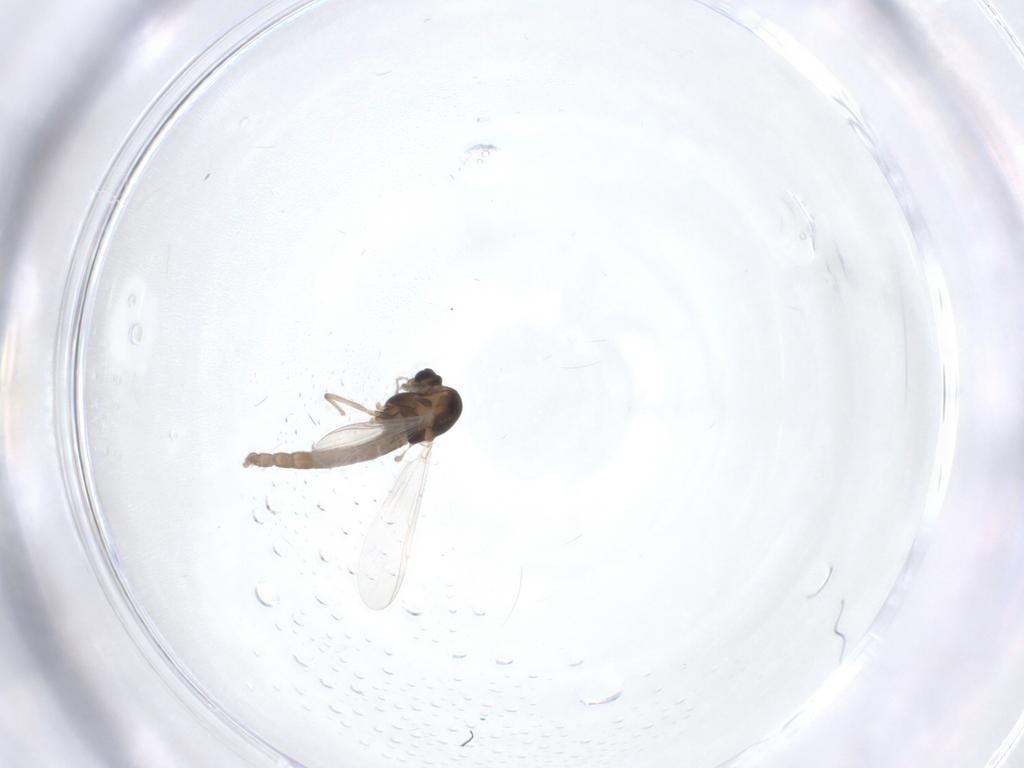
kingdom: Animalia
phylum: Arthropoda
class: Insecta
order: Diptera
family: Chironomidae
